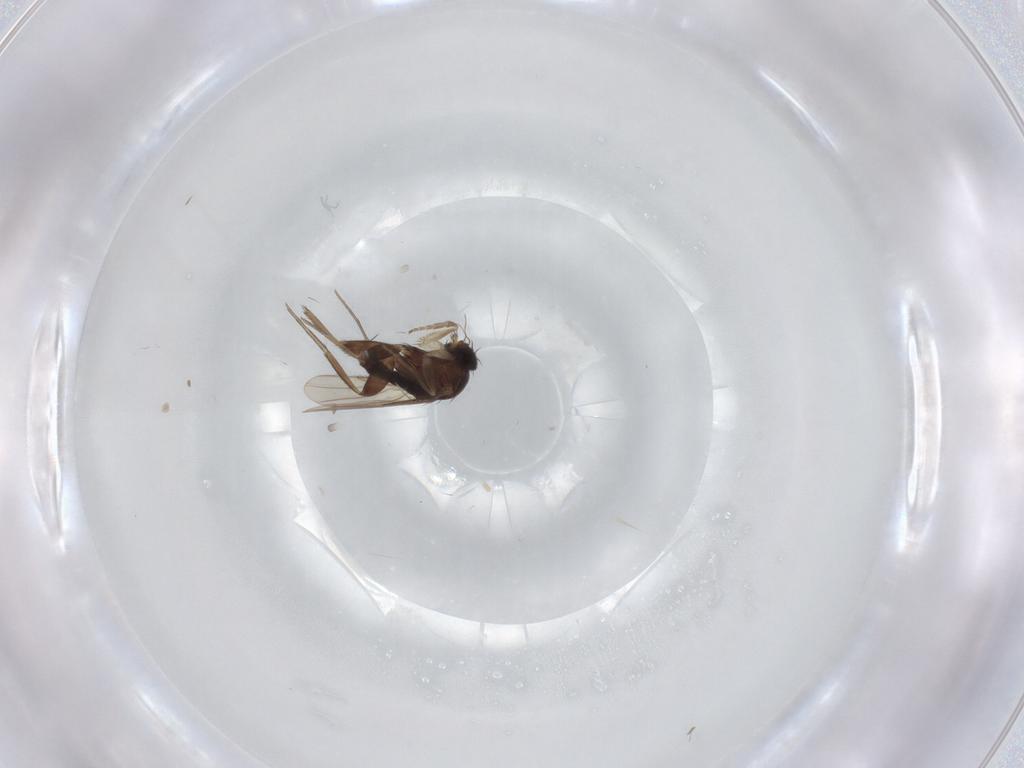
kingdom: Animalia
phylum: Arthropoda
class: Insecta
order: Diptera
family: Phoridae
